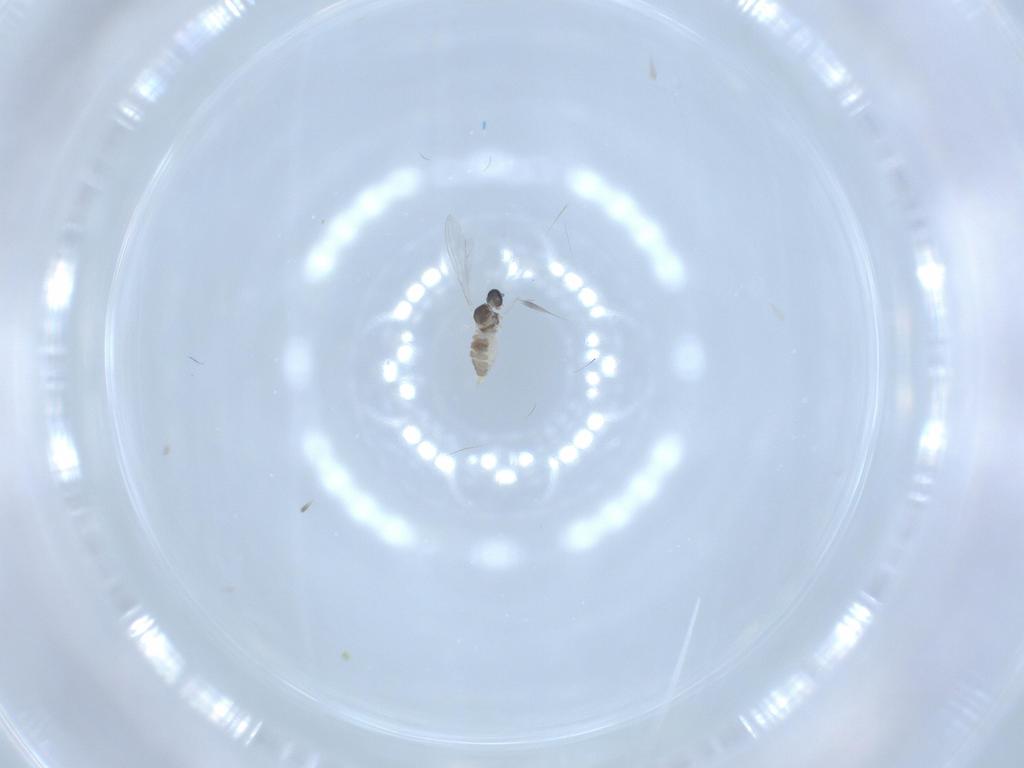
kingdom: Animalia
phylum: Arthropoda
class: Insecta
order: Diptera
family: Cecidomyiidae
